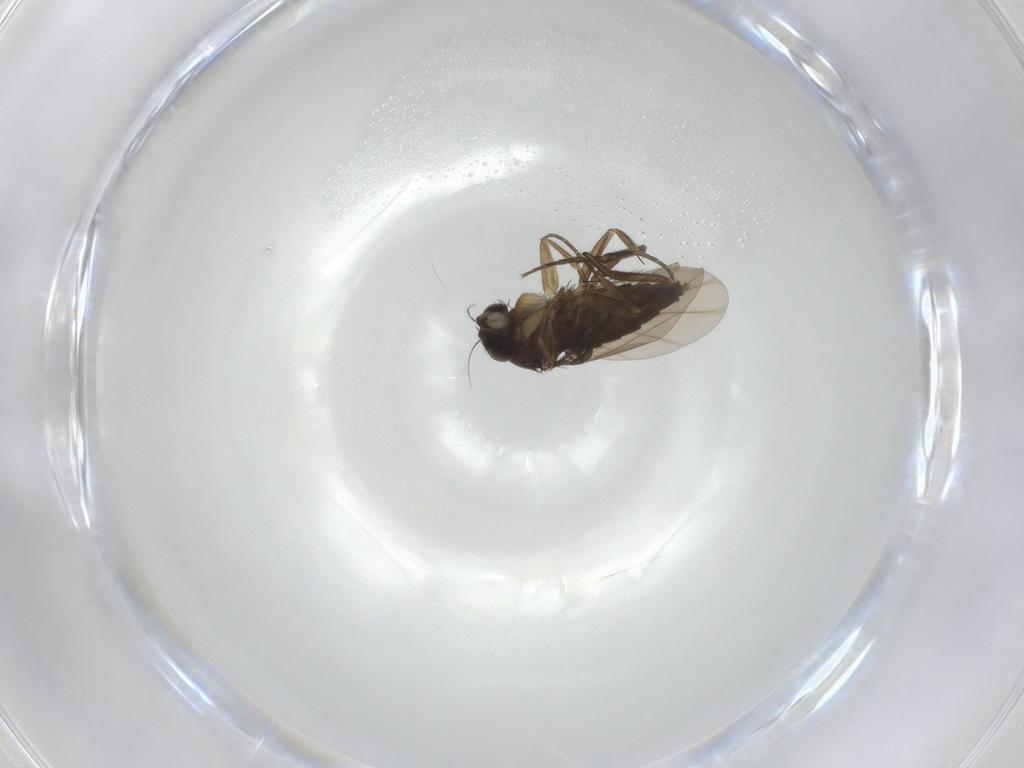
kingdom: Animalia
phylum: Arthropoda
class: Insecta
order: Diptera
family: Phoridae
